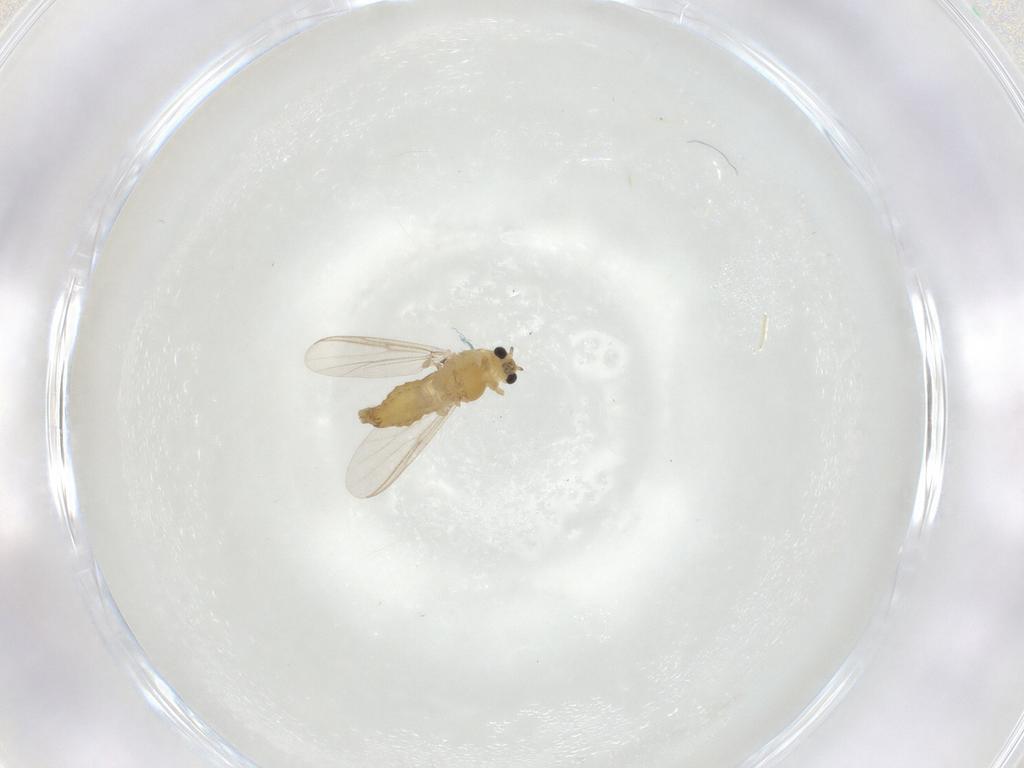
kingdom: Animalia
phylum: Arthropoda
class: Insecta
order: Diptera
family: Chironomidae
